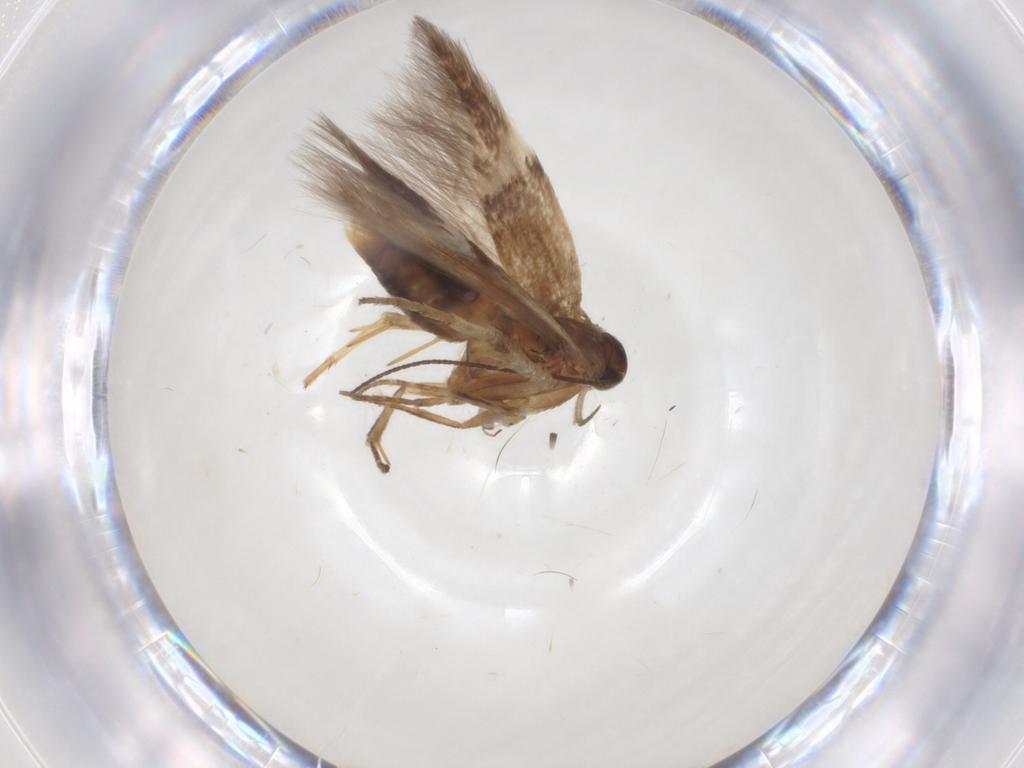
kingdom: Animalia
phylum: Arthropoda
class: Insecta
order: Lepidoptera
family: Gelechiidae
